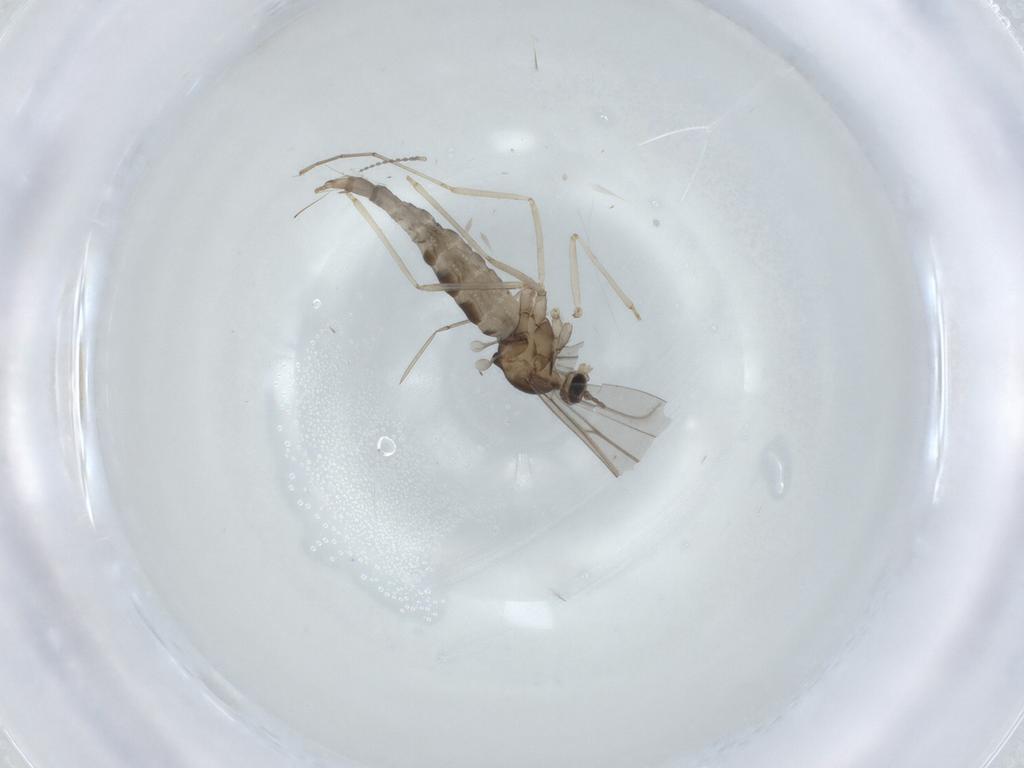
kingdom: Animalia
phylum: Arthropoda
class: Insecta
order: Diptera
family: Cecidomyiidae
